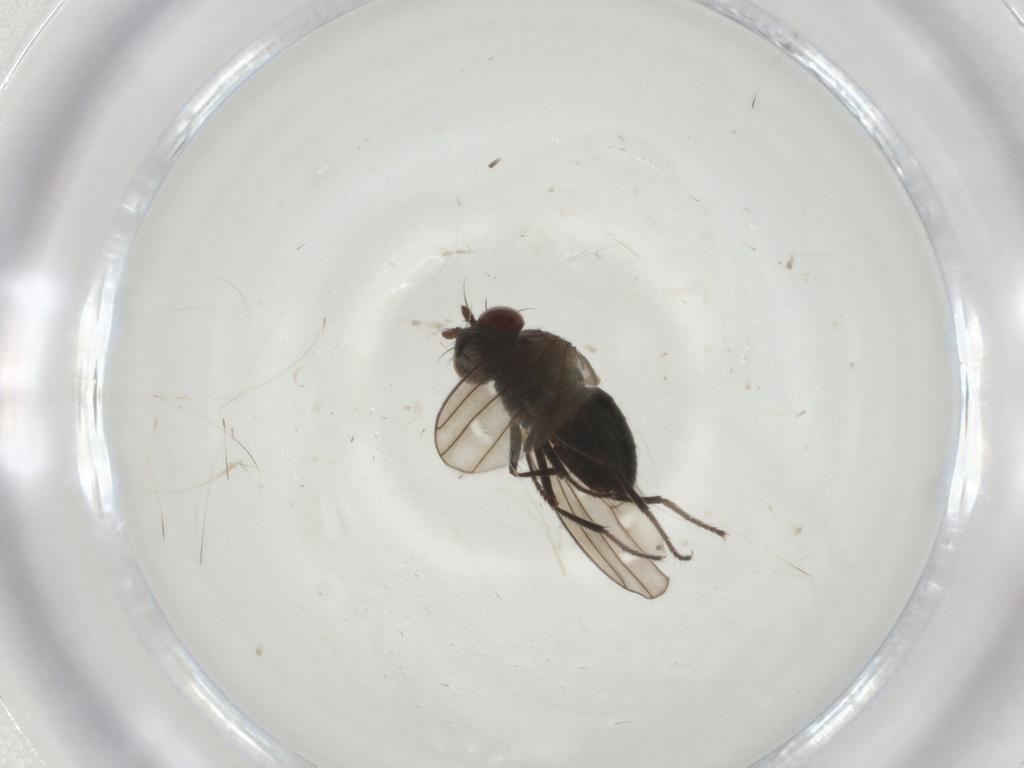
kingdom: Animalia
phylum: Arthropoda
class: Insecta
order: Diptera
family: Ephydridae
